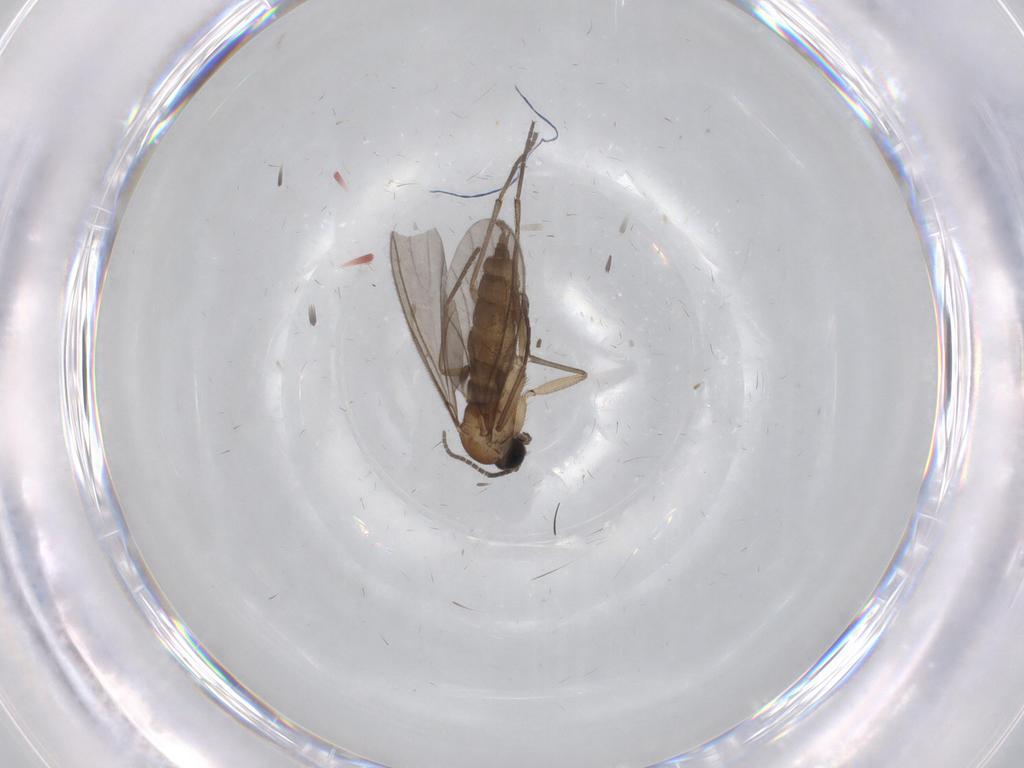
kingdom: Animalia
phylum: Arthropoda
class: Insecta
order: Diptera
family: Sciaridae
